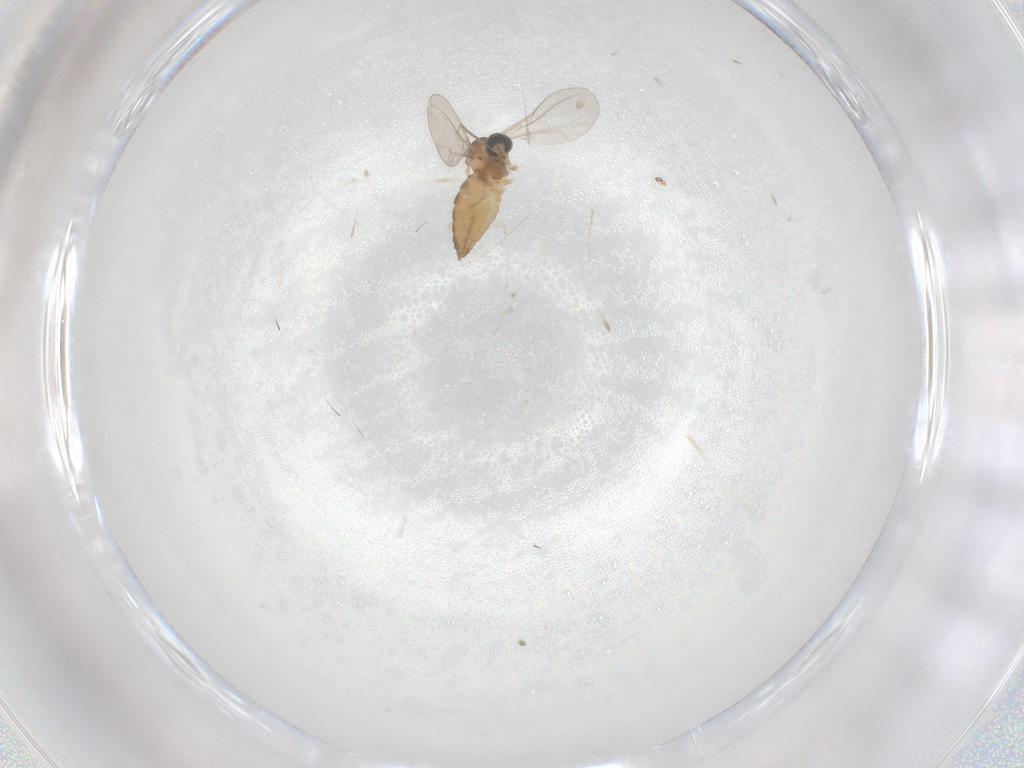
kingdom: Animalia
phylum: Arthropoda
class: Insecta
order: Diptera
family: Cecidomyiidae
